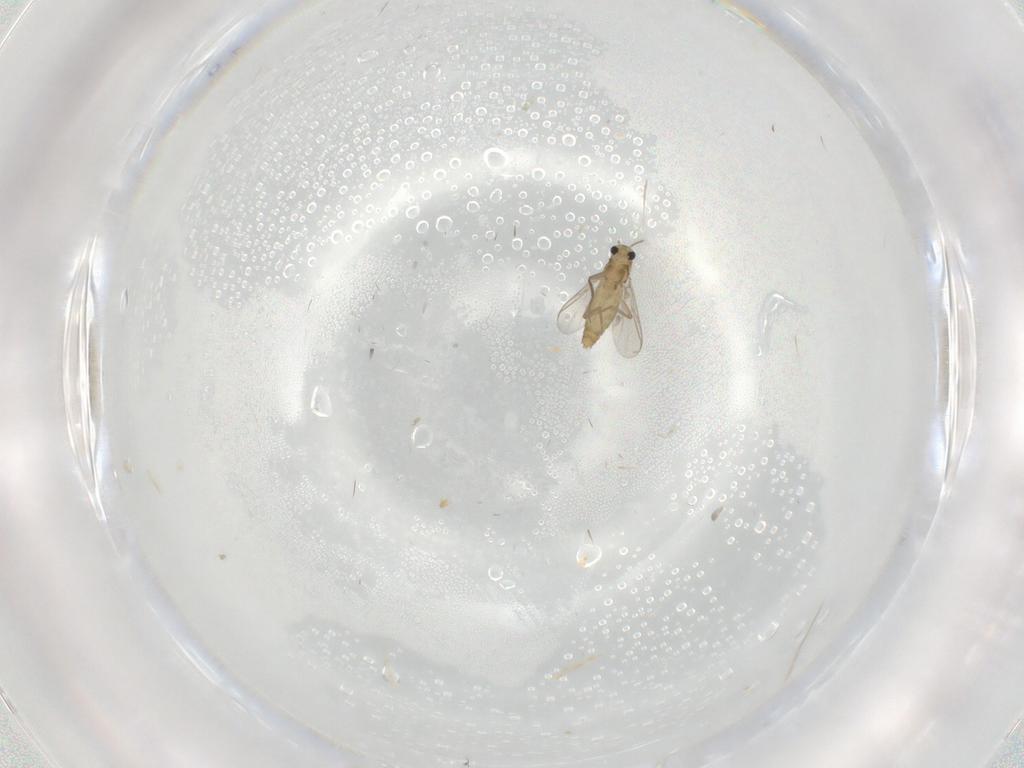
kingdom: Animalia
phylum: Arthropoda
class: Insecta
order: Diptera
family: Chironomidae
